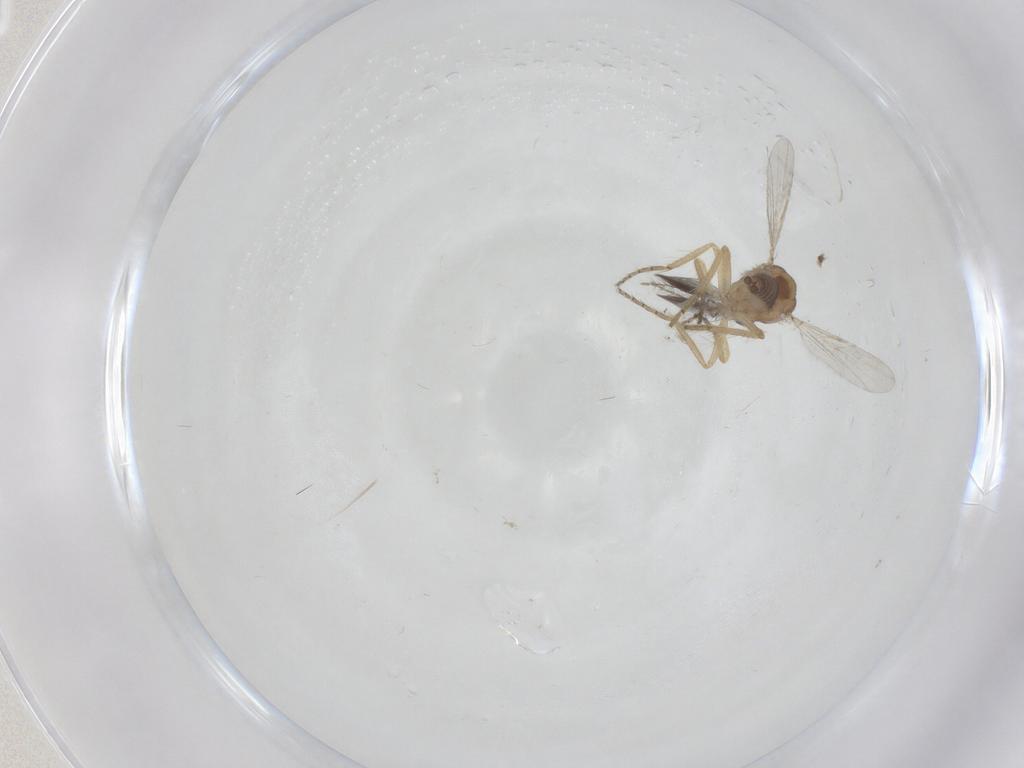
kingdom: Animalia
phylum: Arthropoda
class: Insecta
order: Diptera
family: Ceratopogonidae
